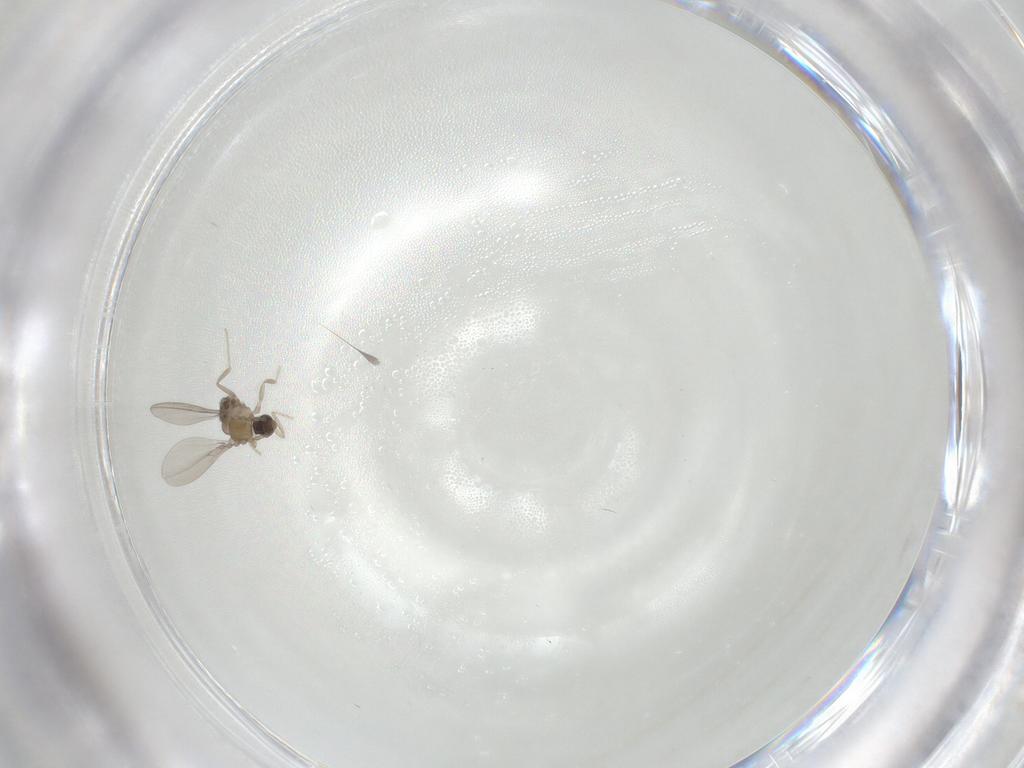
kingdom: Animalia
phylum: Arthropoda
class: Insecta
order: Diptera
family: Cecidomyiidae
